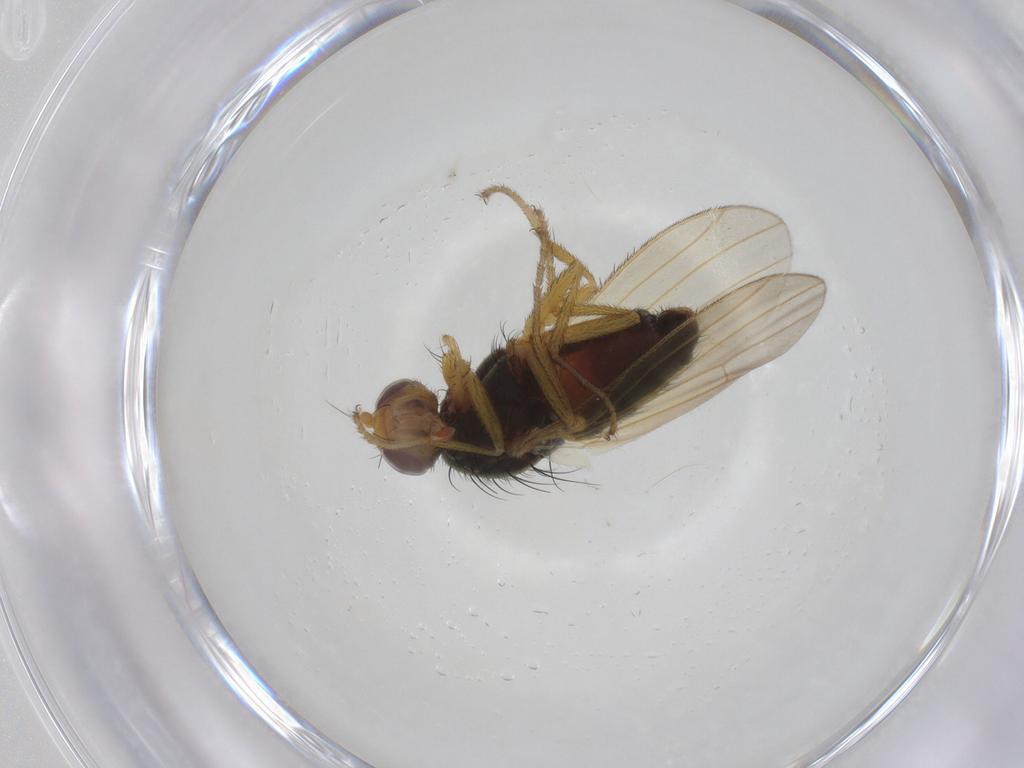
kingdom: Animalia
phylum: Arthropoda
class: Insecta
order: Diptera
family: Heleomyzidae
